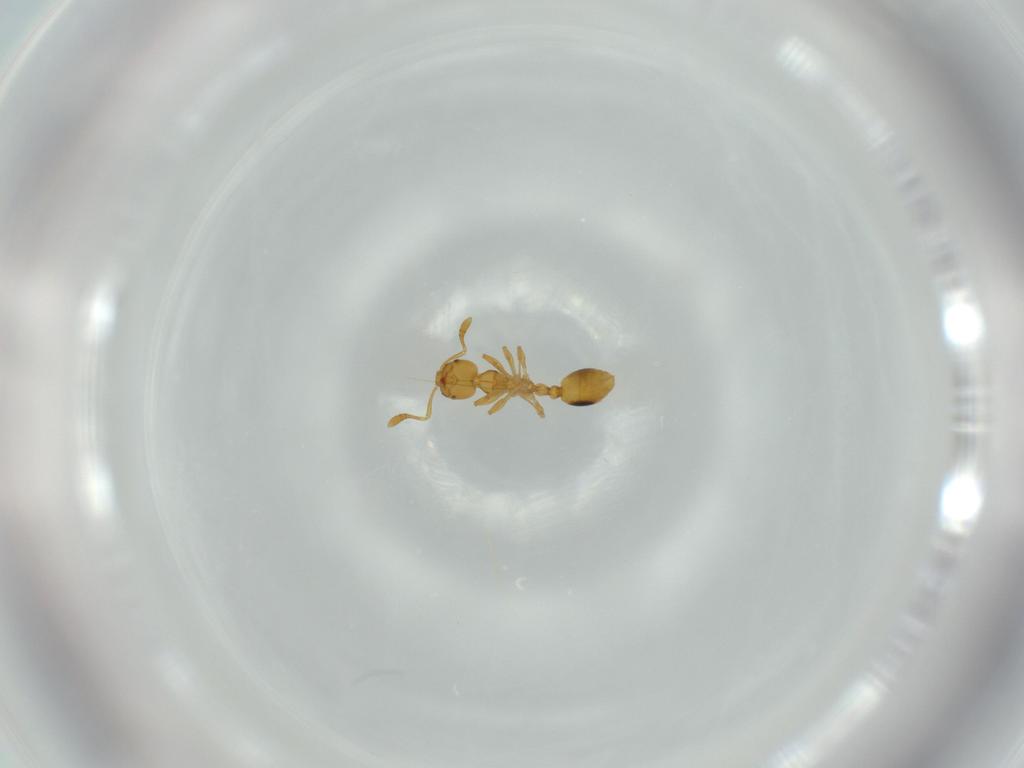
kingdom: Animalia
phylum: Arthropoda
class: Insecta
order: Hymenoptera
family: Formicidae
